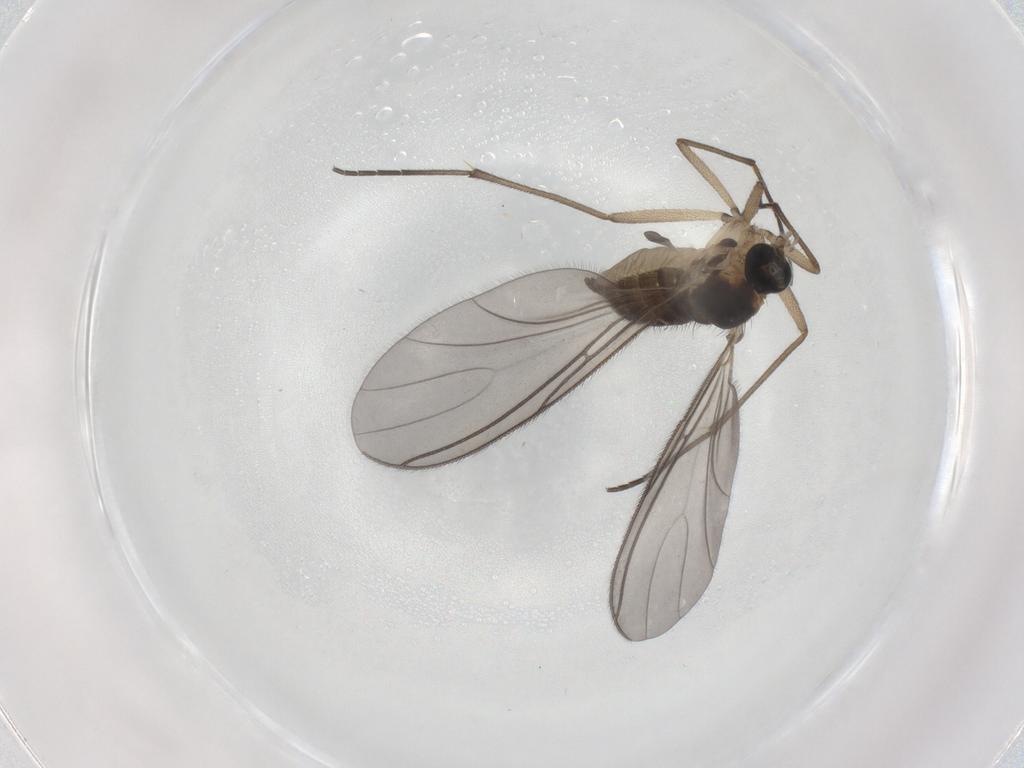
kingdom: Animalia
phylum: Arthropoda
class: Insecta
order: Diptera
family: Sciaridae
